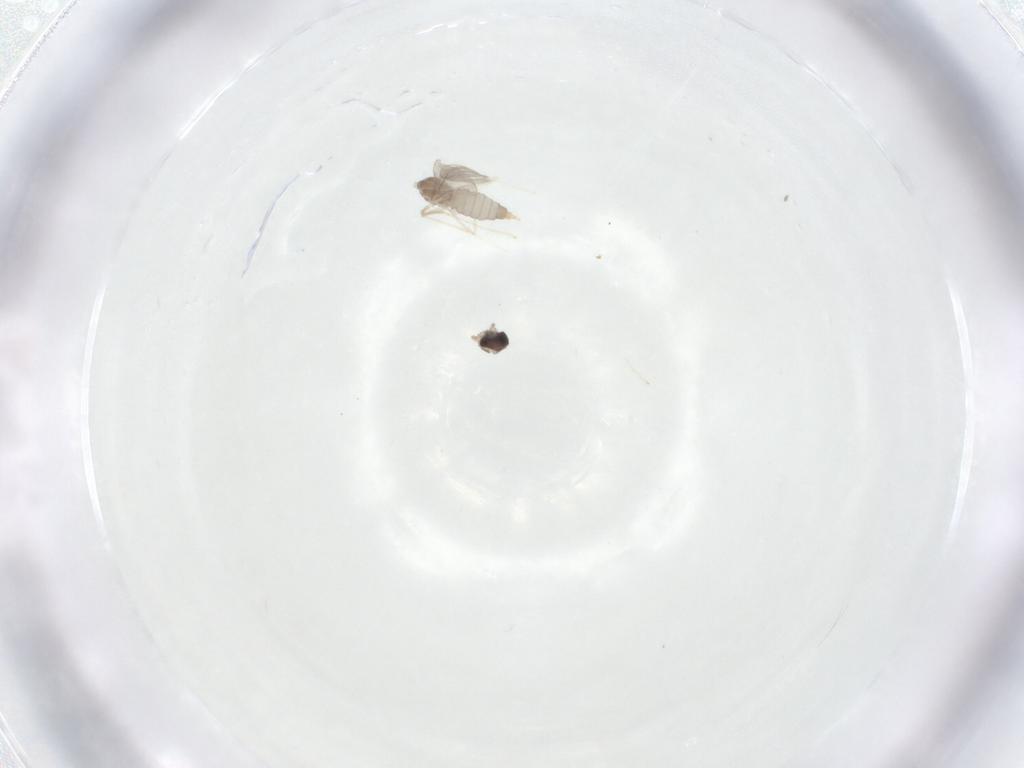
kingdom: Animalia
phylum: Arthropoda
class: Insecta
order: Diptera
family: Cecidomyiidae
